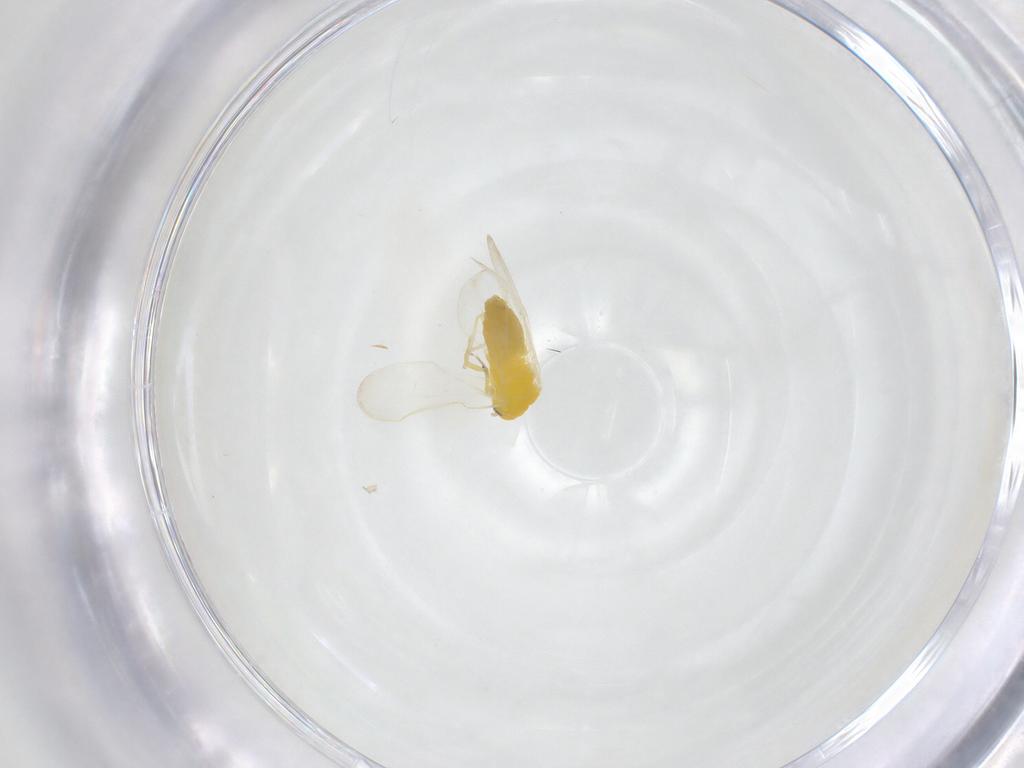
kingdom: Animalia
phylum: Arthropoda
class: Insecta
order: Hemiptera
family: Aleyrodidae
